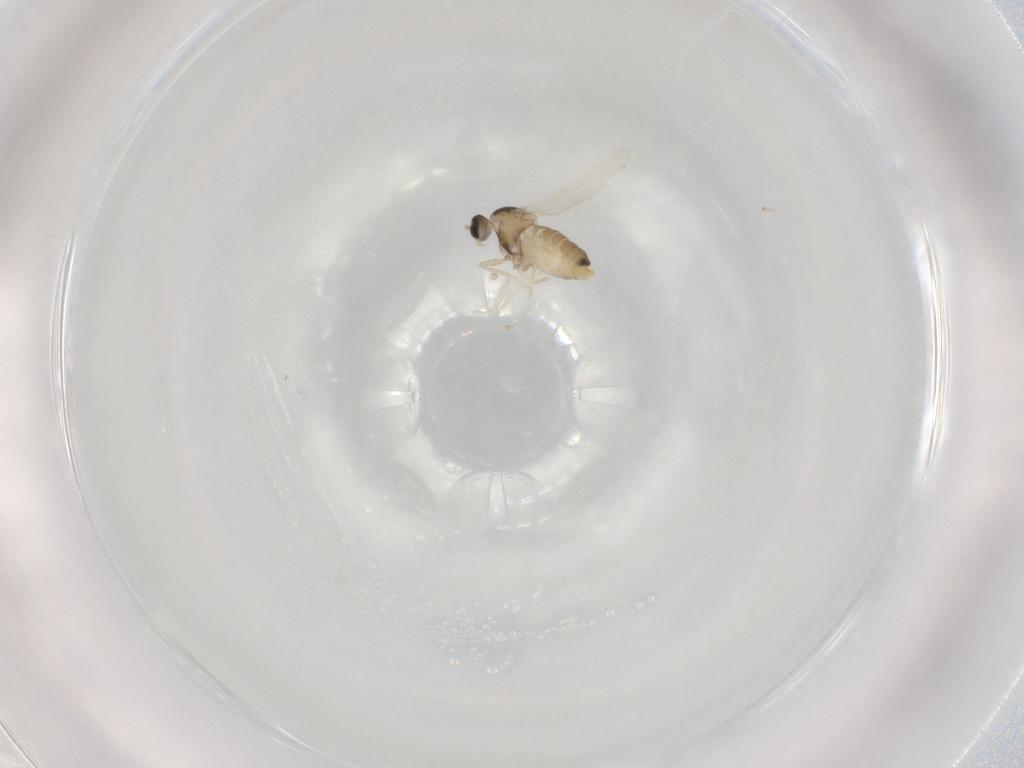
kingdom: Animalia
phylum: Arthropoda
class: Insecta
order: Diptera
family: Cecidomyiidae
